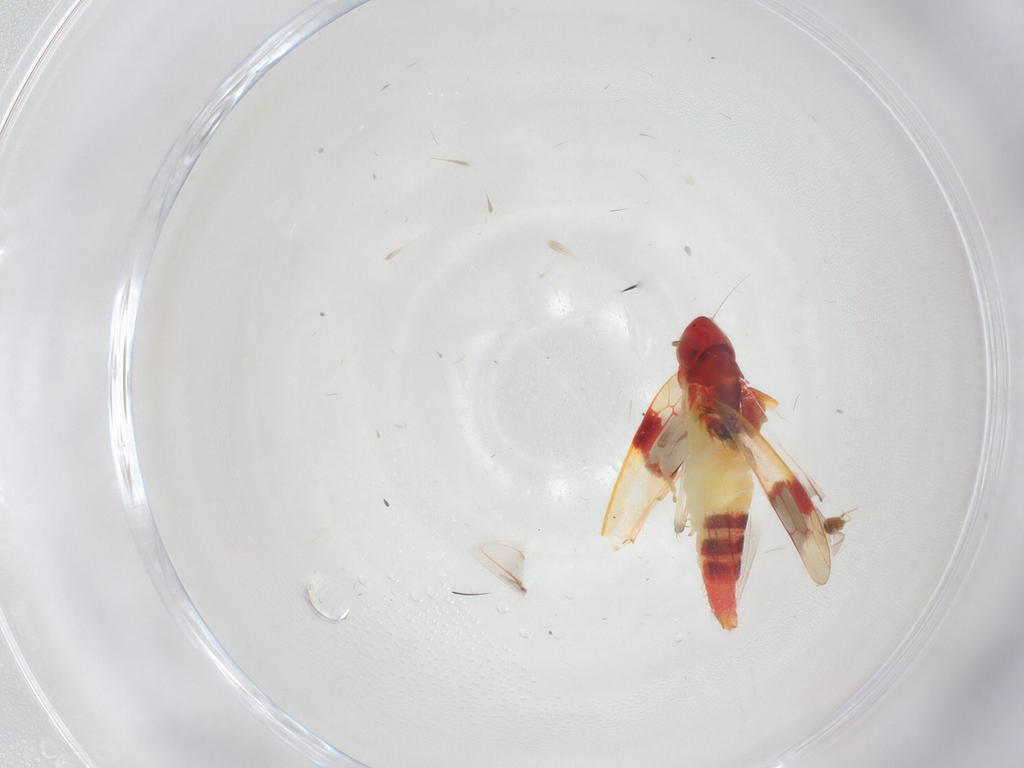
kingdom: Animalia
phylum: Arthropoda
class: Insecta
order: Hemiptera
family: Cicadellidae
